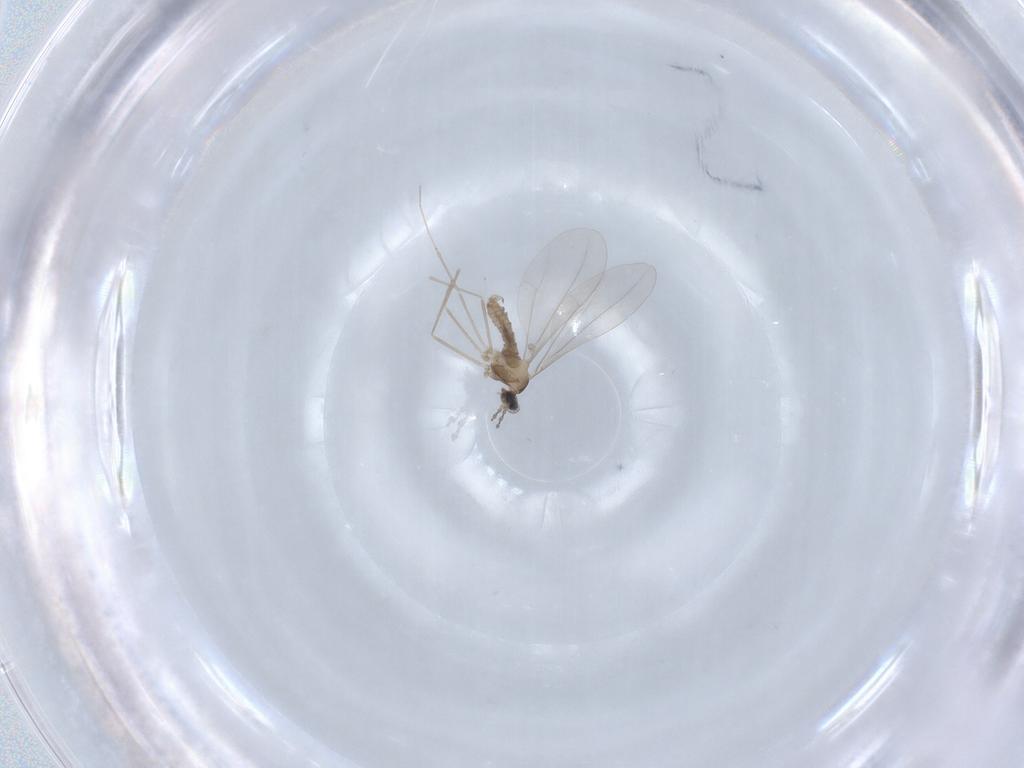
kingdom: Animalia
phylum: Arthropoda
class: Insecta
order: Diptera
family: Cecidomyiidae
